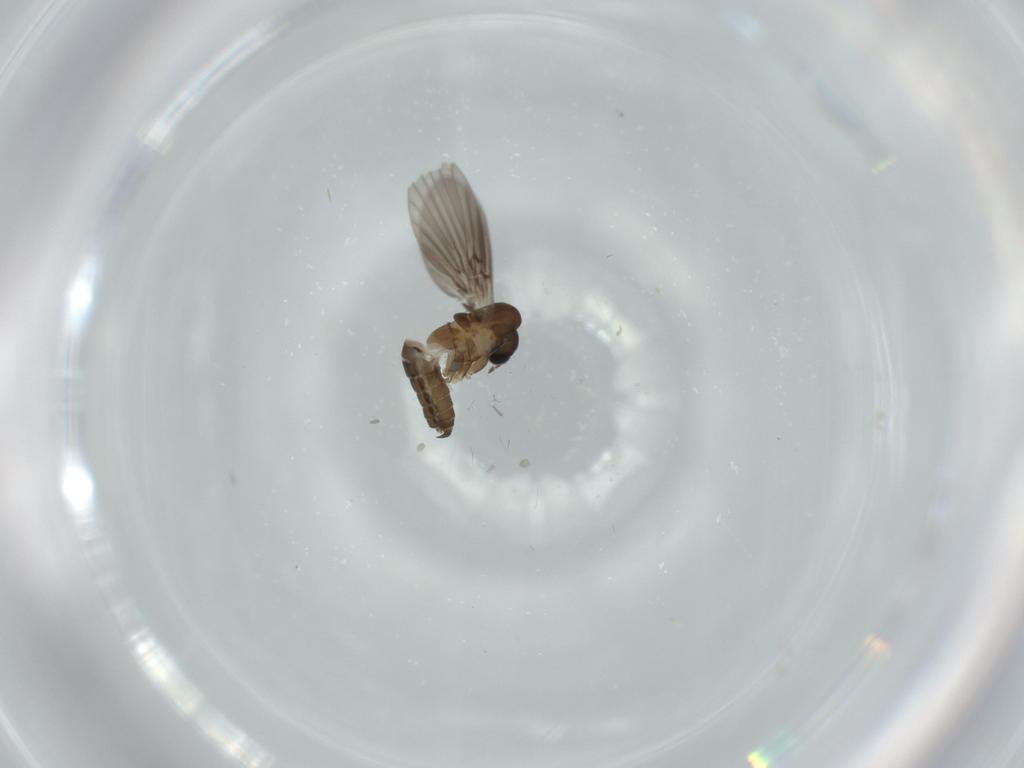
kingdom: Animalia
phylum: Arthropoda
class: Insecta
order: Diptera
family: Psychodidae
